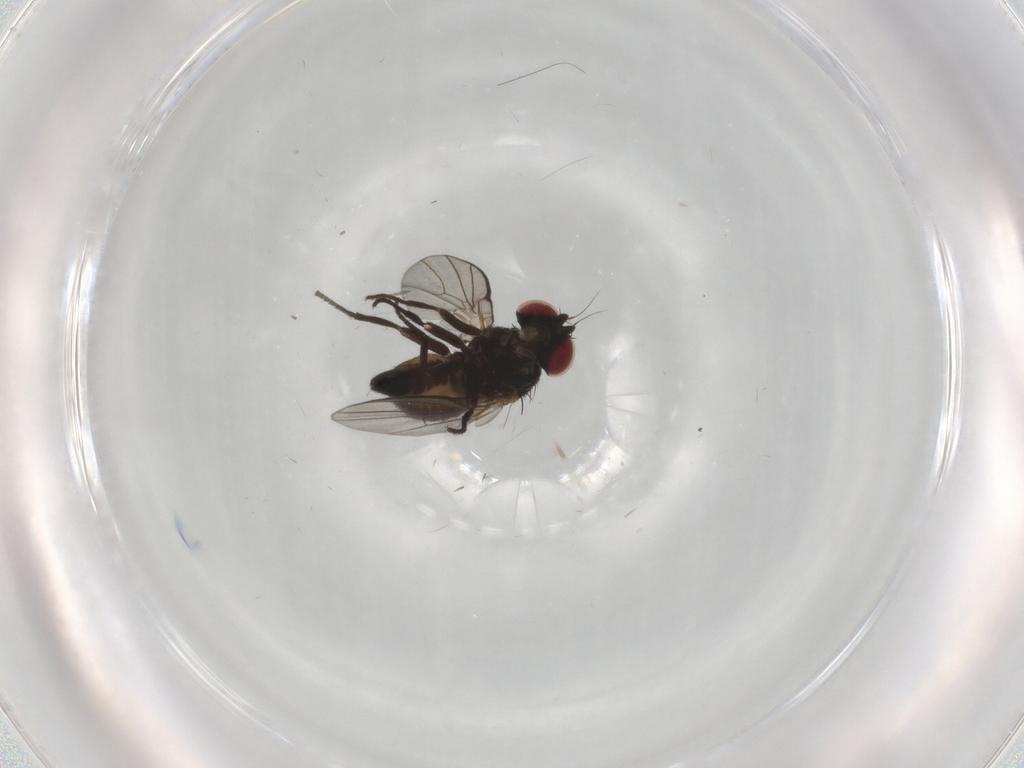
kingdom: Animalia
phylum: Arthropoda
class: Insecta
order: Diptera
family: Agromyzidae
